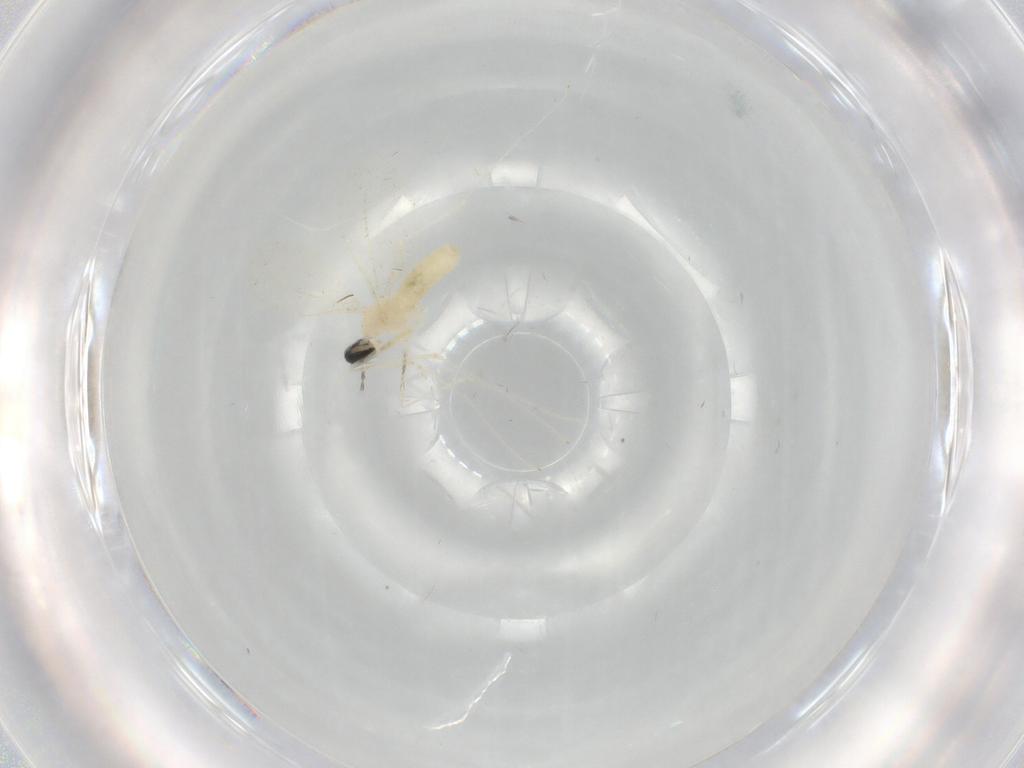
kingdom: Animalia
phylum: Arthropoda
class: Insecta
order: Diptera
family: Cecidomyiidae
